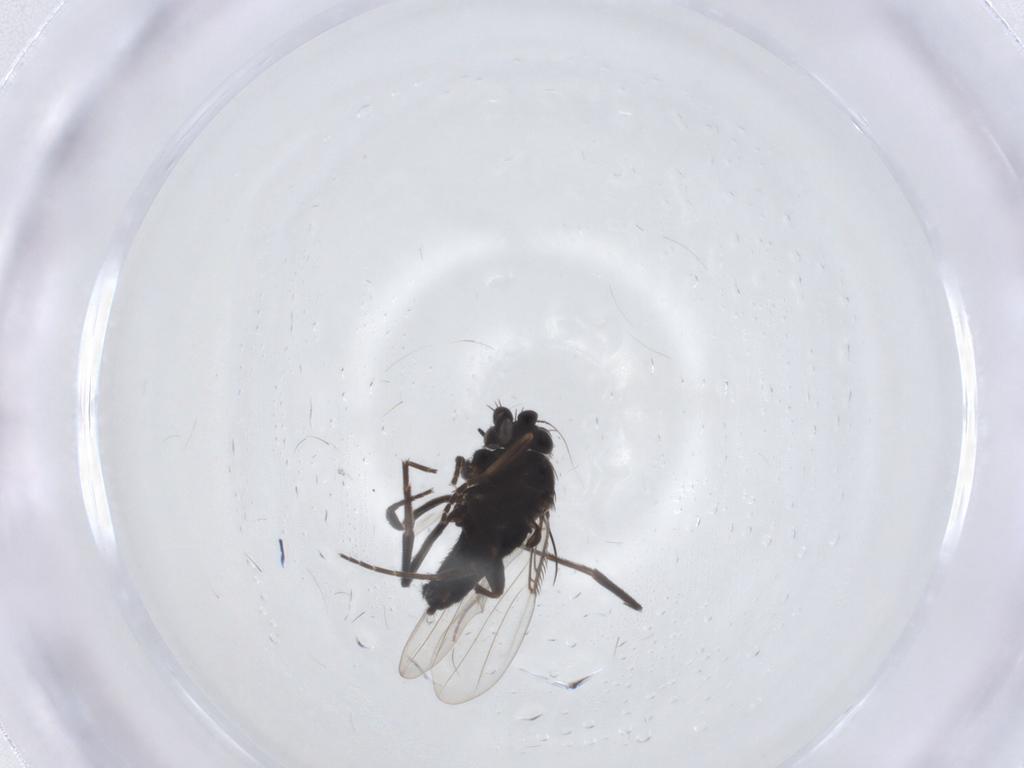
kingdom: Animalia
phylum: Arthropoda
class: Insecta
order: Diptera
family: Phoridae
